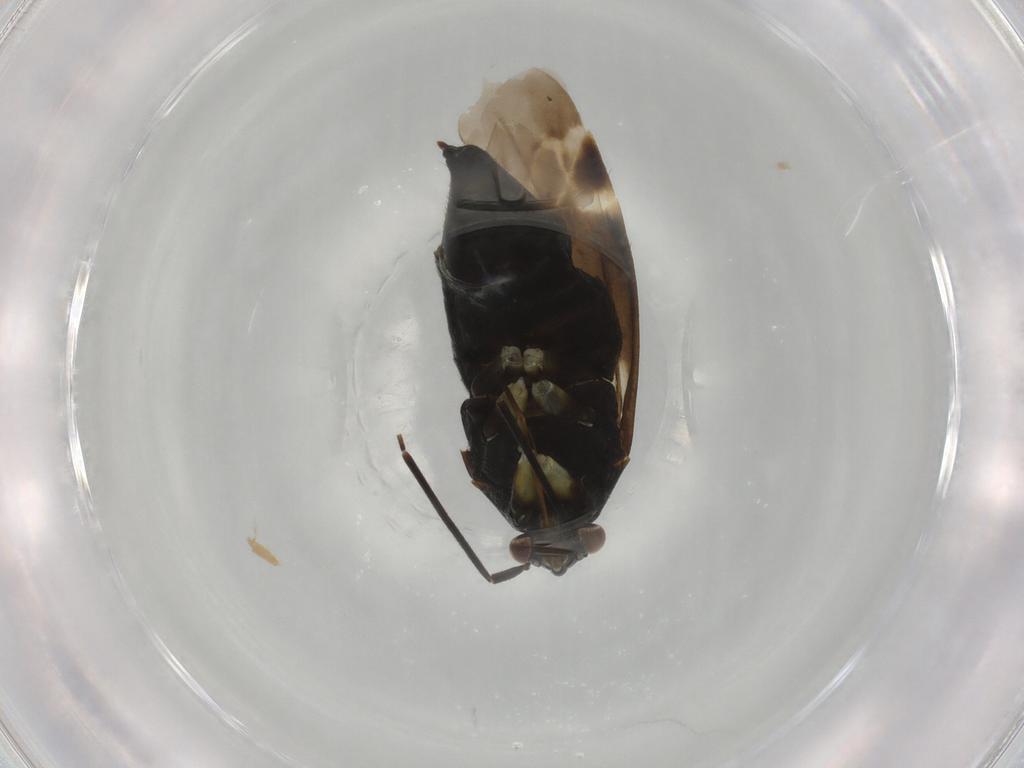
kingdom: Animalia
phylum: Arthropoda
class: Insecta
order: Hemiptera
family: Miridae
